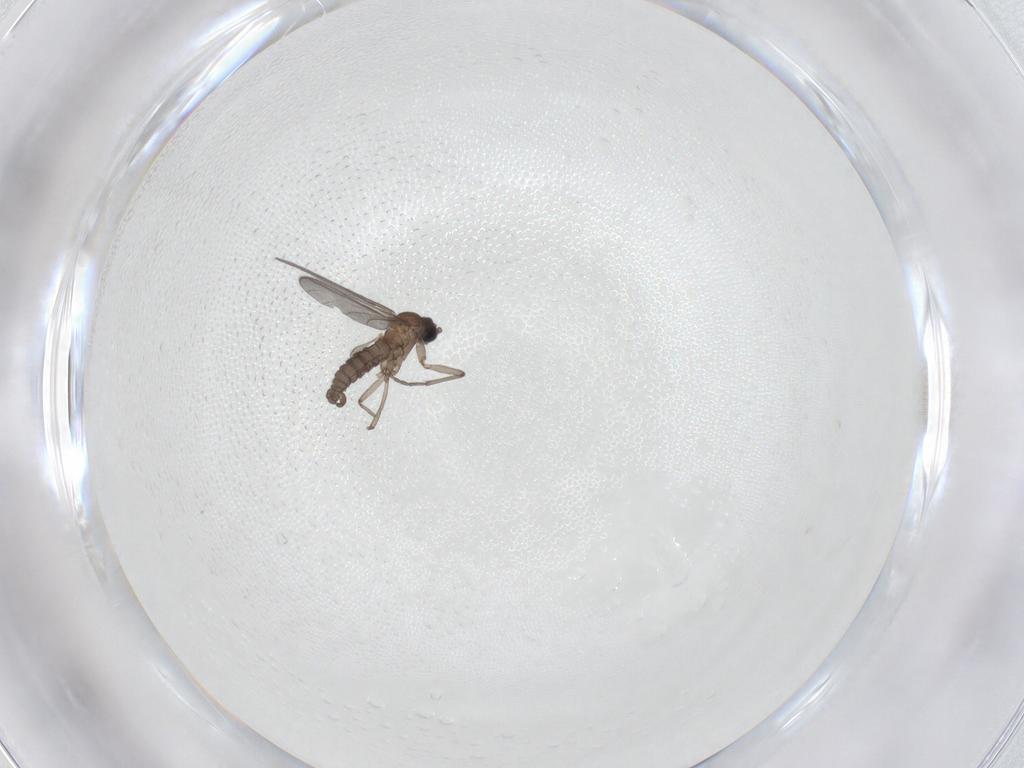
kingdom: Animalia
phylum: Arthropoda
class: Insecta
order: Diptera
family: Sciaridae
